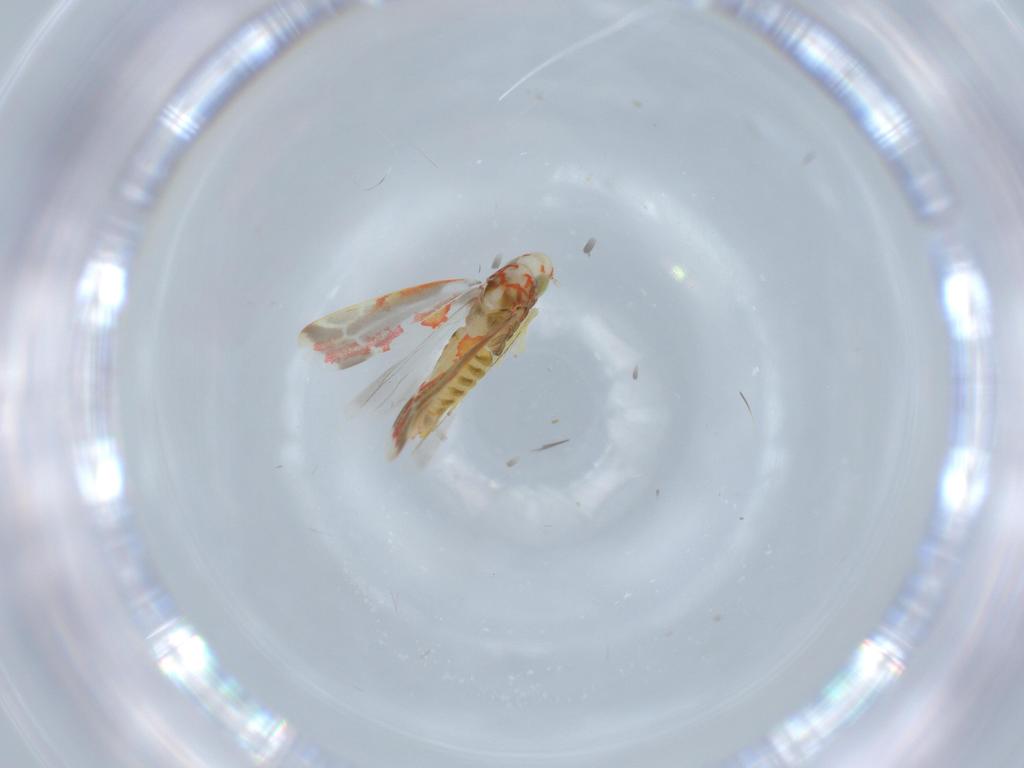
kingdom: Animalia
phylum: Arthropoda
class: Insecta
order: Hemiptera
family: Cicadellidae
